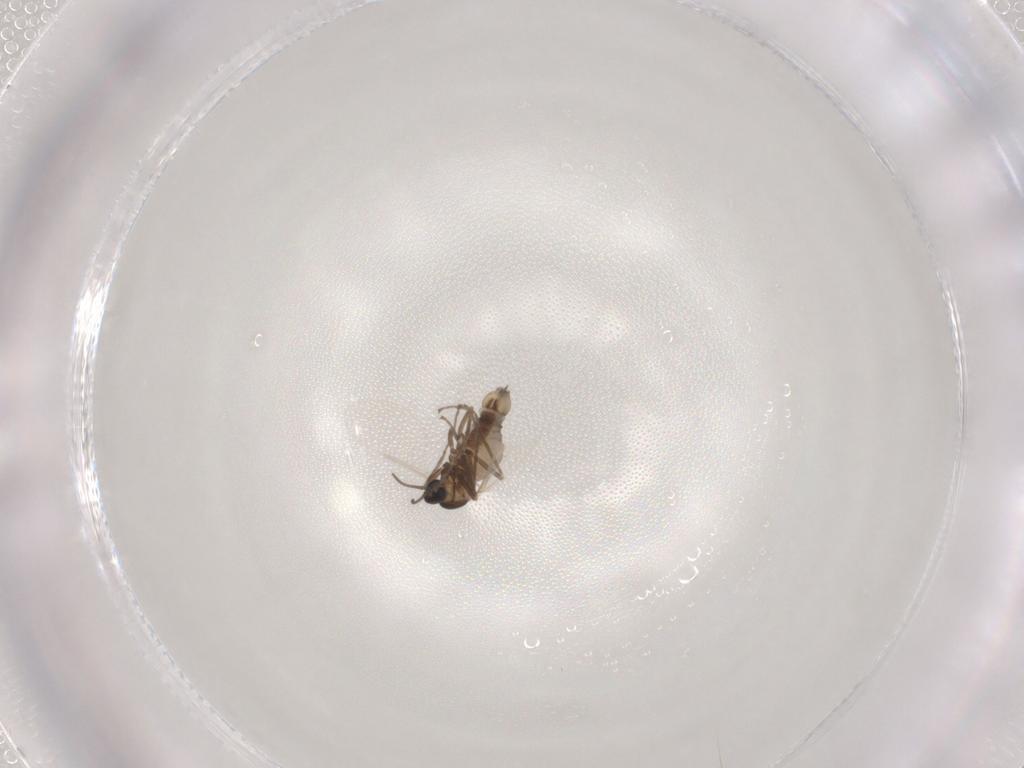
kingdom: Animalia
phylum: Arthropoda
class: Insecta
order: Diptera
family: Cecidomyiidae
